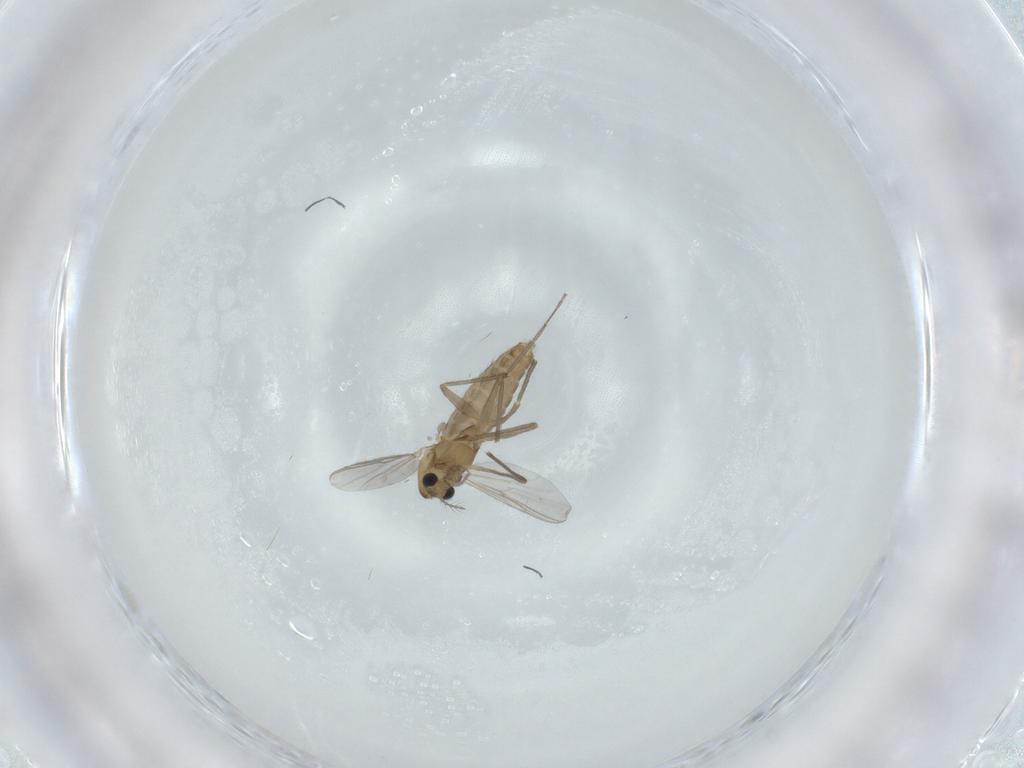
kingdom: Animalia
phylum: Arthropoda
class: Insecta
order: Diptera
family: Chironomidae
